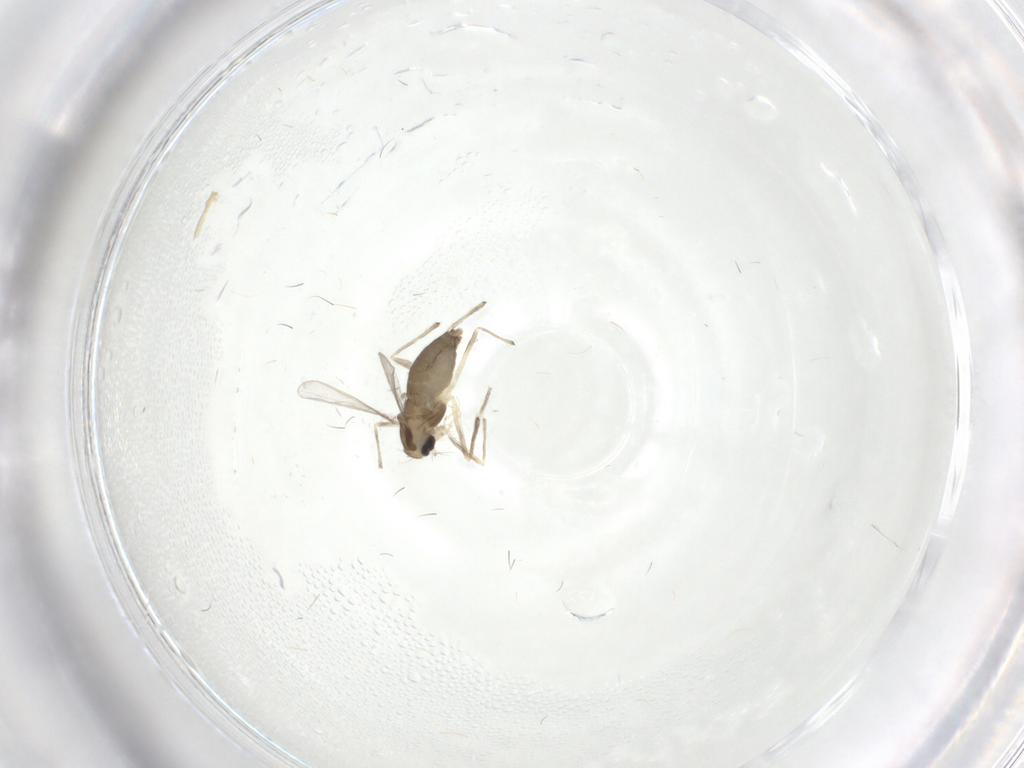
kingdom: Animalia
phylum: Arthropoda
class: Insecta
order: Diptera
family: Chironomidae
